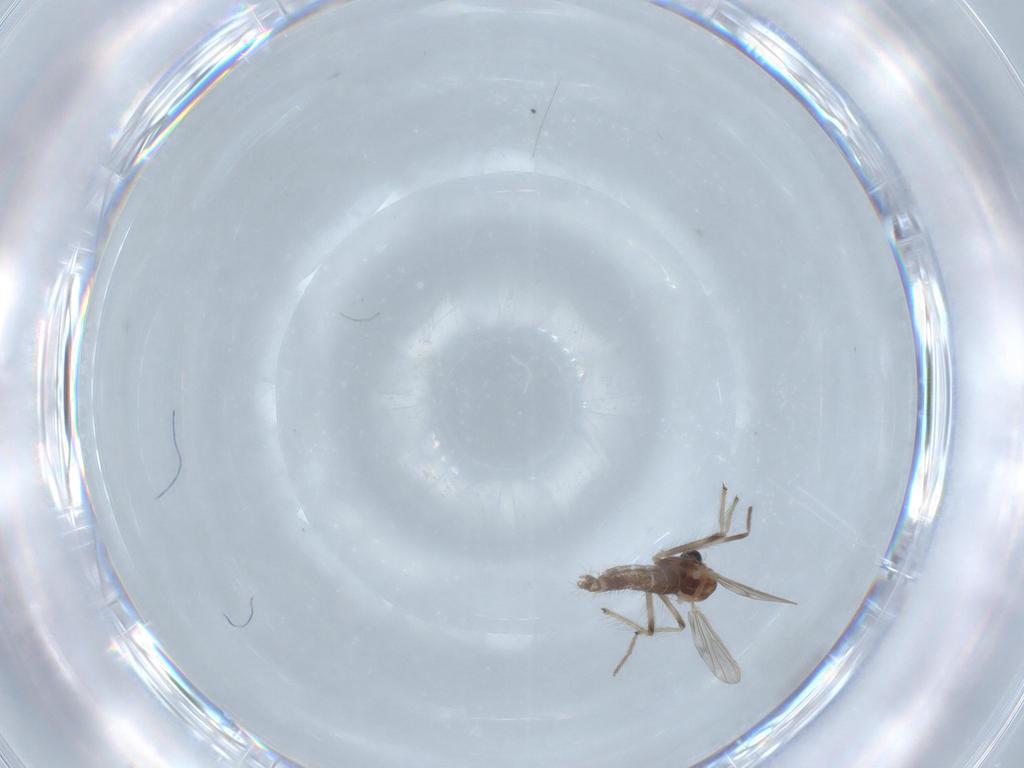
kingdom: Animalia
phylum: Arthropoda
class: Insecta
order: Diptera
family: Chironomidae
